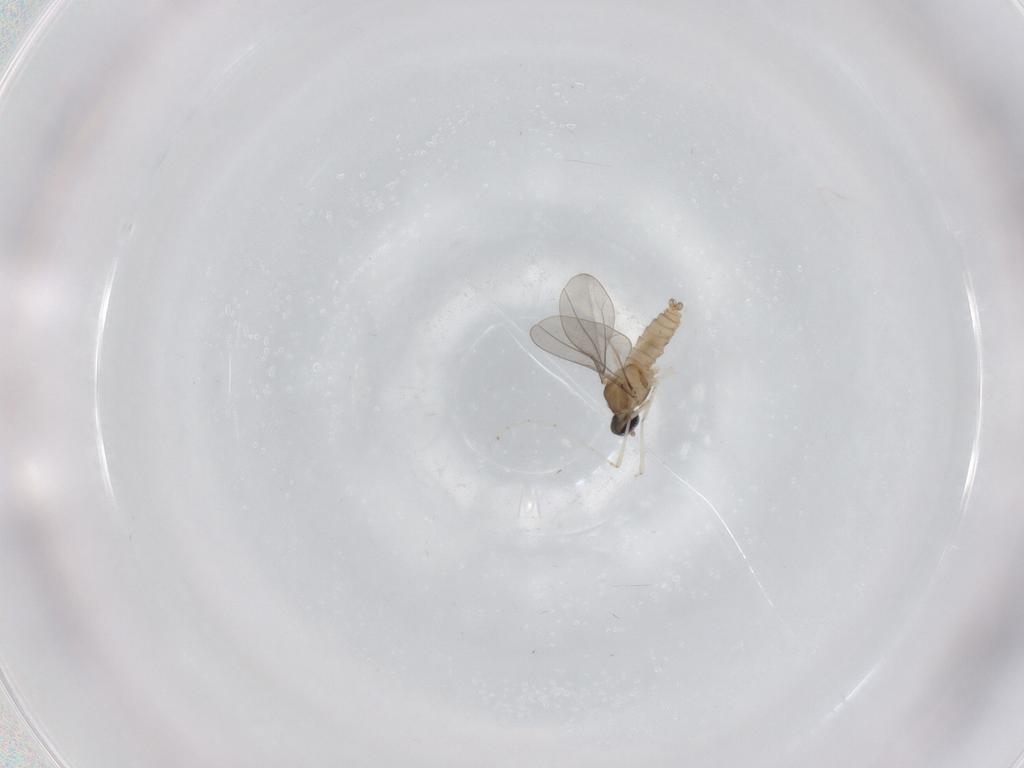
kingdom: Animalia
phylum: Arthropoda
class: Insecta
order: Diptera
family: Cecidomyiidae
